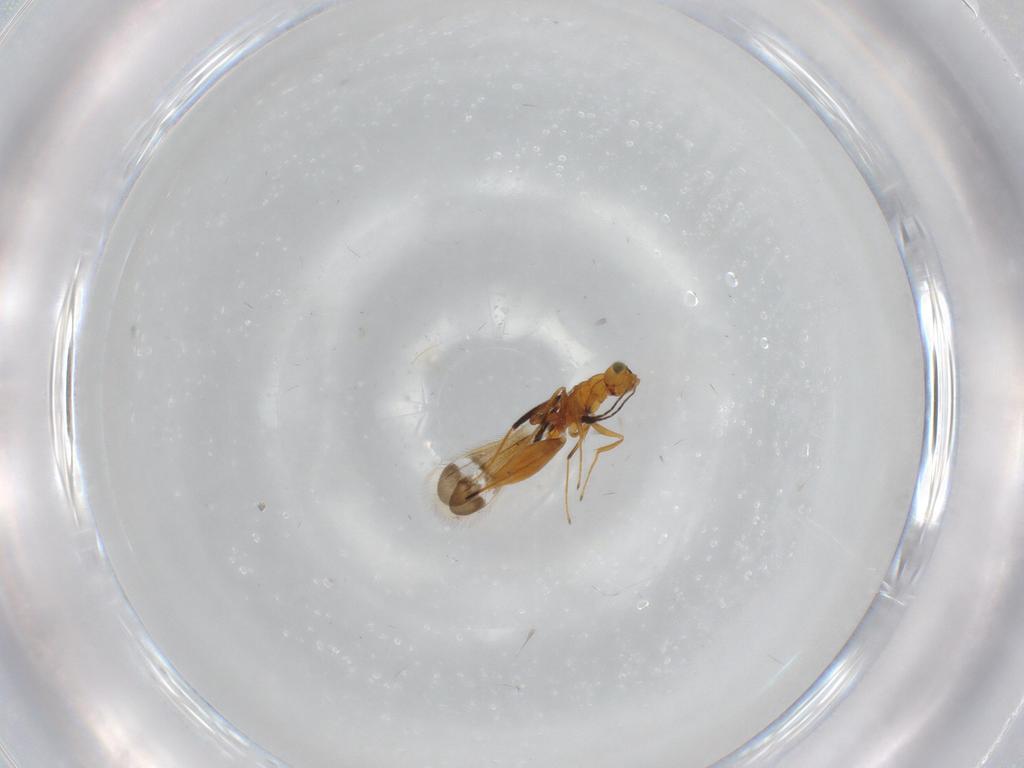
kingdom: Animalia
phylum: Arthropoda
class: Insecta
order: Hymenoptera
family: Mymaridae
